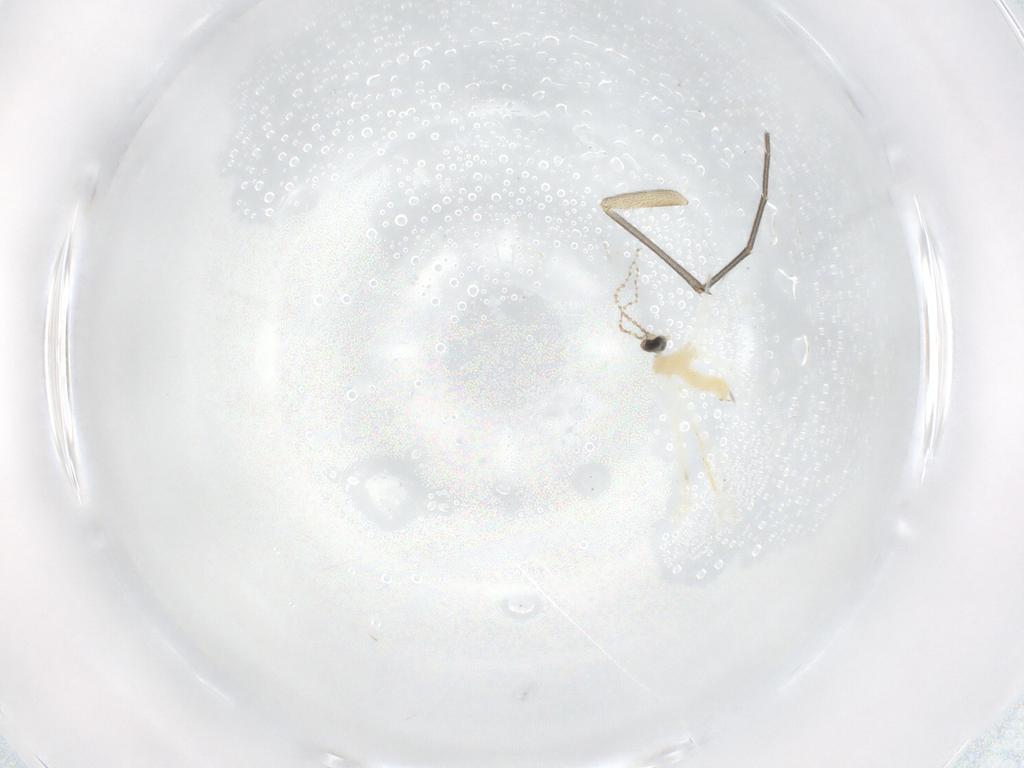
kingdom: Animalia
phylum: Arthropoda
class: Insecta
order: Diptera
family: Cecidomyiidae
